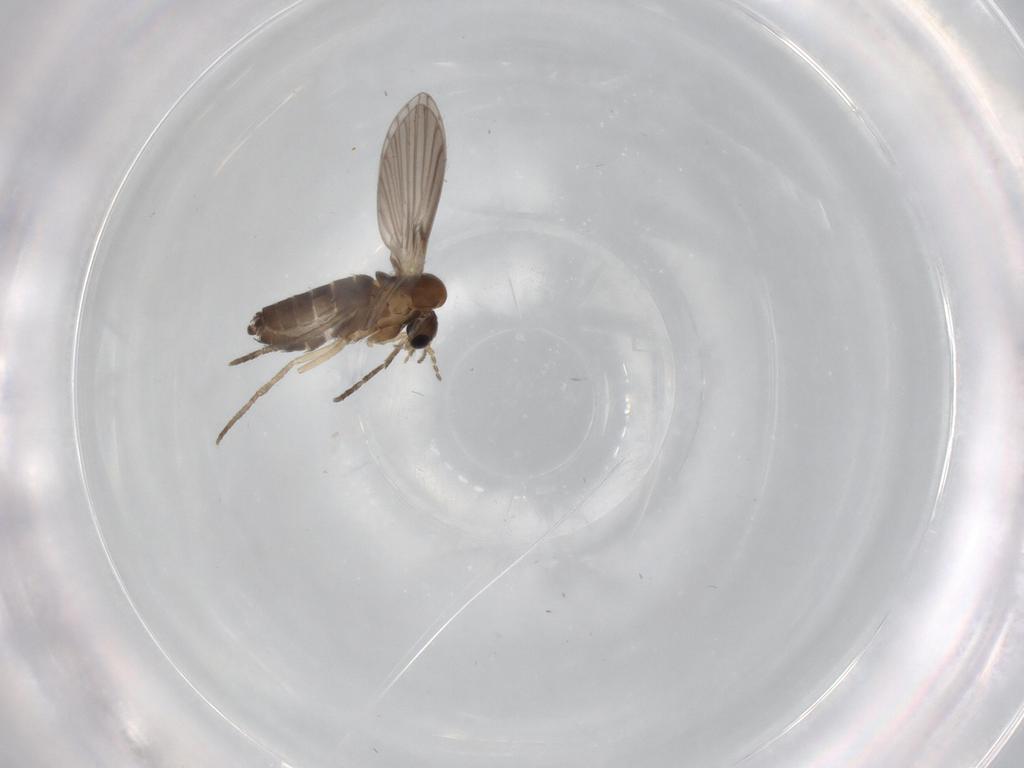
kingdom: Animalia
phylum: Arthropoda
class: Insecta
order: Diptera
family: Psychodidae
